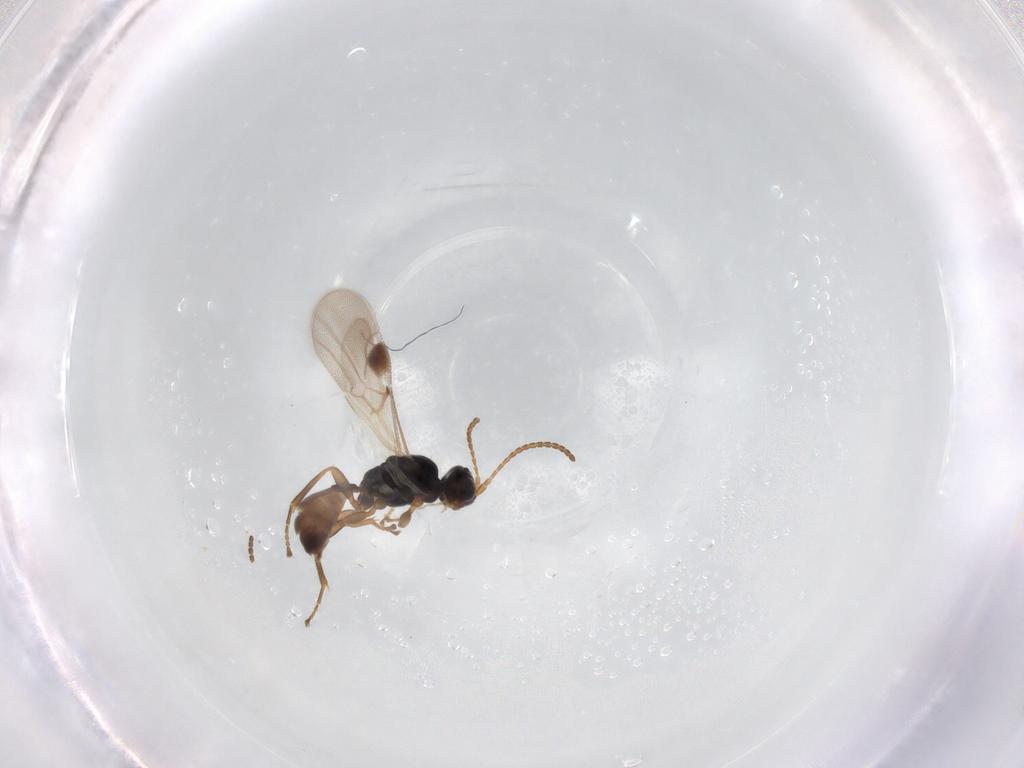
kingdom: Animalia
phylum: Arthropoda
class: Insecta
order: Hymenoptera
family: Braconidae
